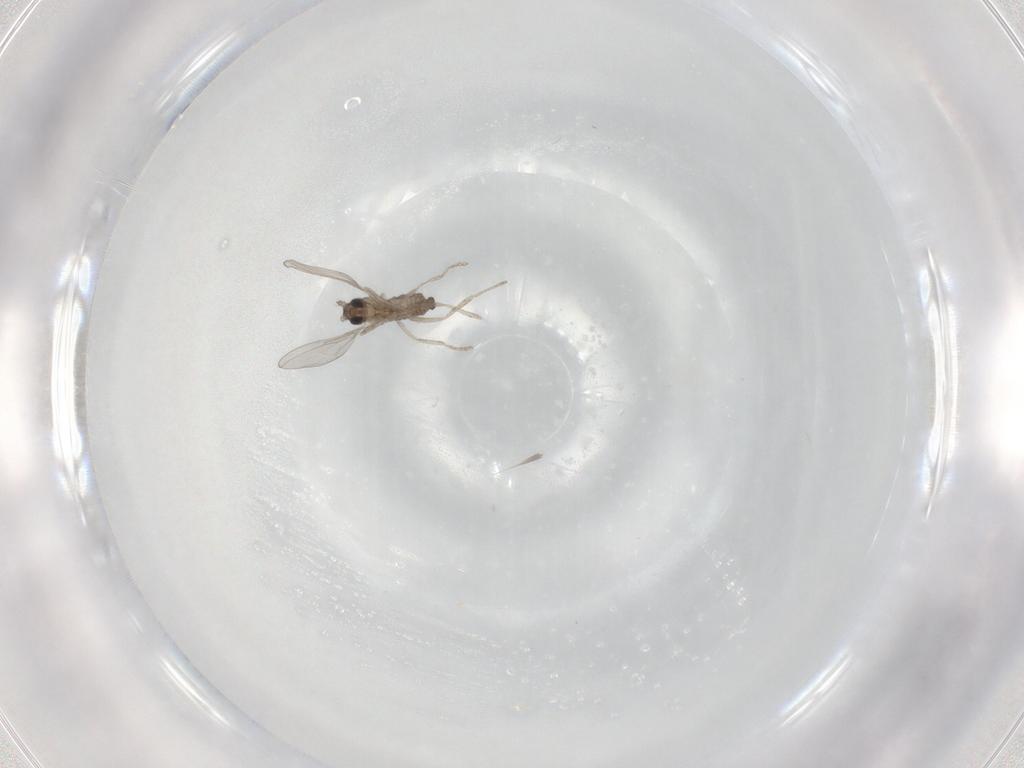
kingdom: Animalia
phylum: Arthropoda
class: Insecta
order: Diptera
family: Cecidomyiidae
